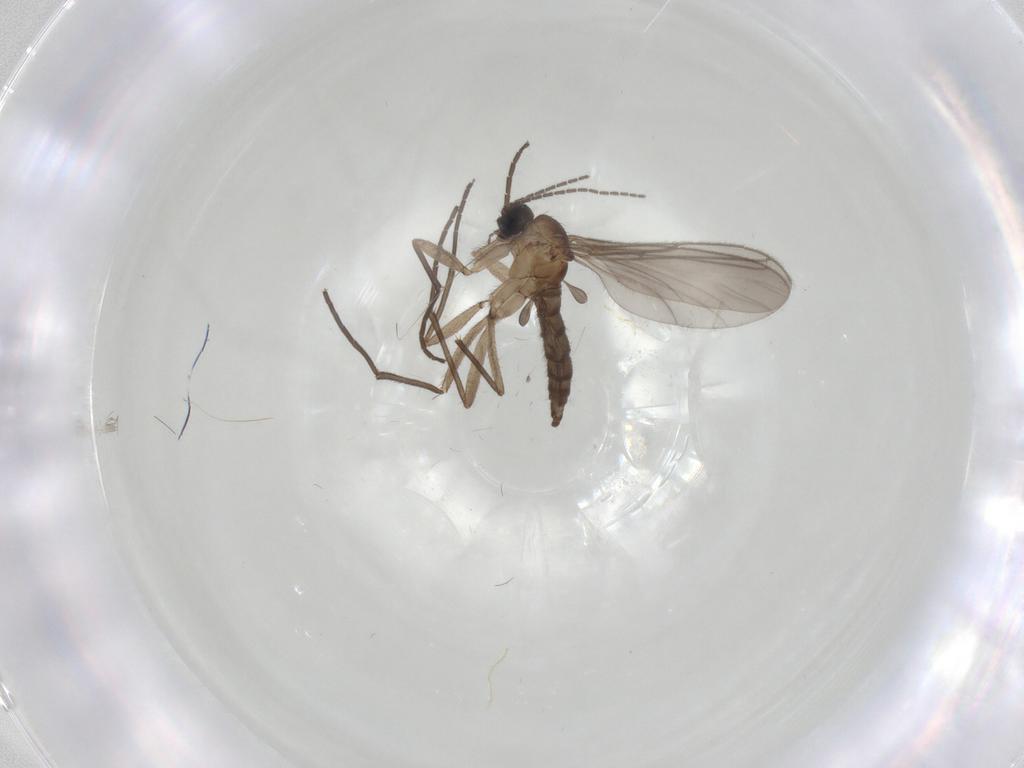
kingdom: Animalia
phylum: Arthropoda
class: Insecta
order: Diptera
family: Sciaridae
